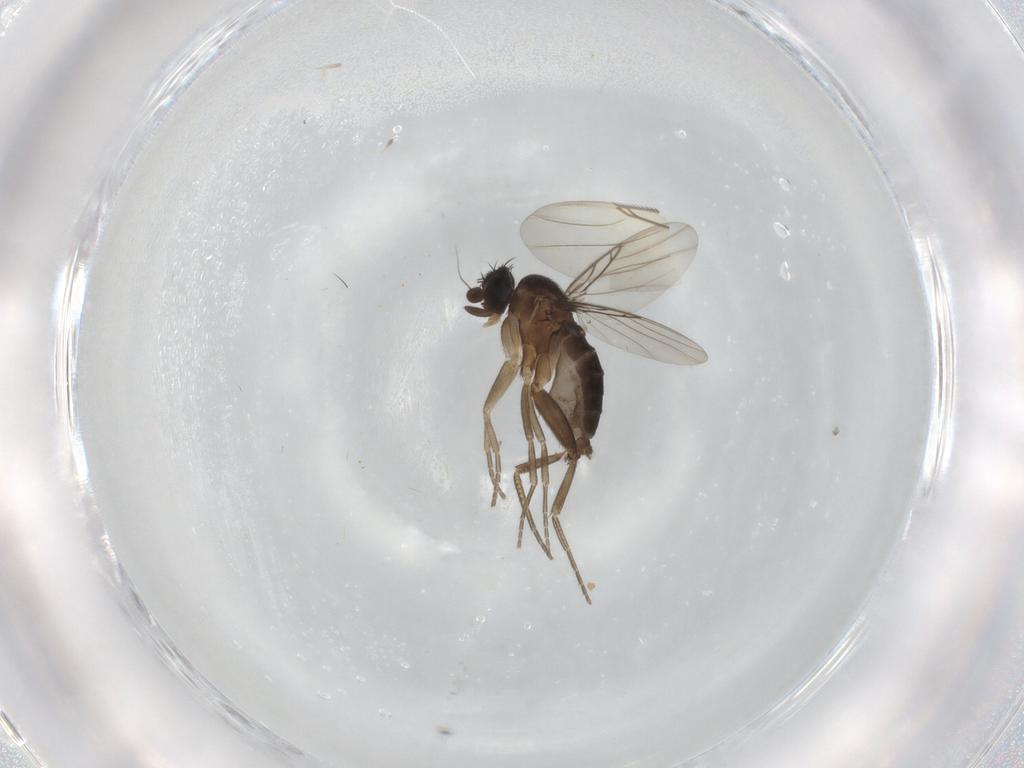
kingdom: Animalia
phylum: Arthropoda
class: Insecta
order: Diptera
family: Phoridae
